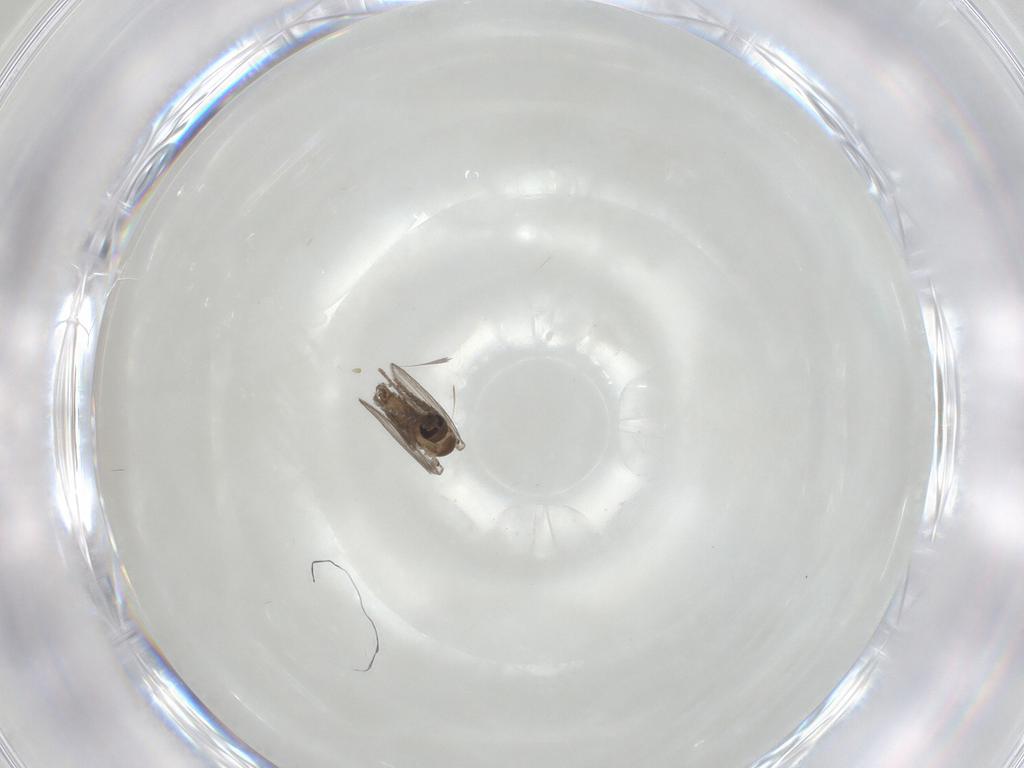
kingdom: Animalia
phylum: Arthropoda
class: Insecta
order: Diptera
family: Psychodidae
